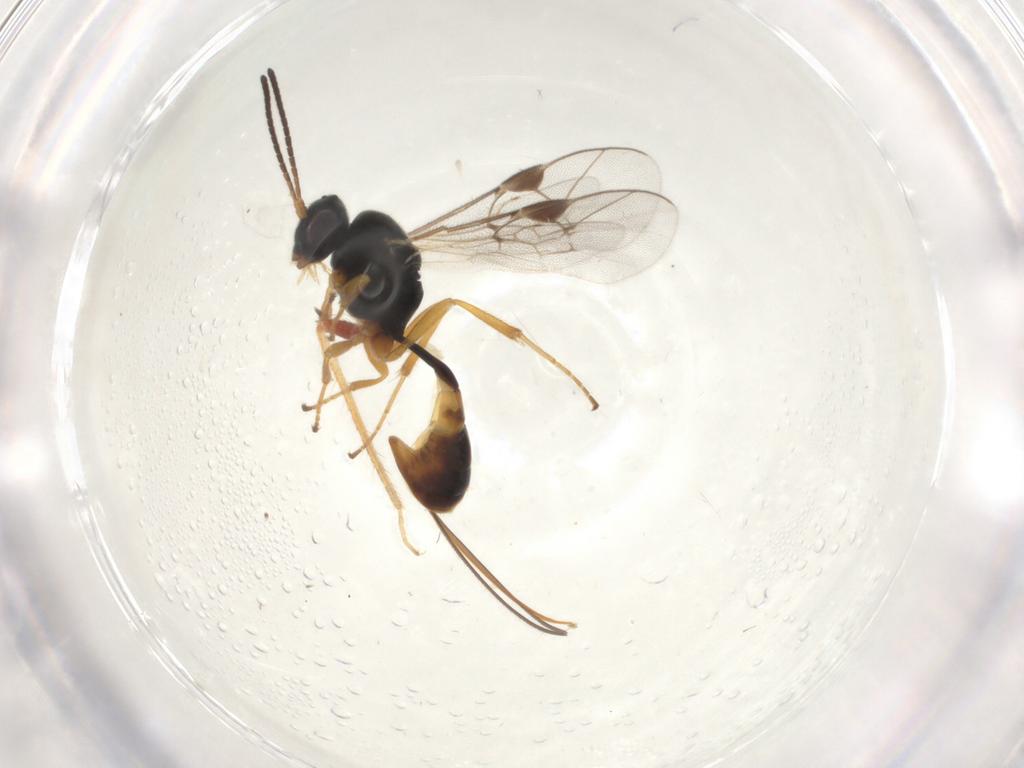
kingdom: Animalia
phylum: Arthropoda
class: Insecta
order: Hymenoptera
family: Ichneumonidae
